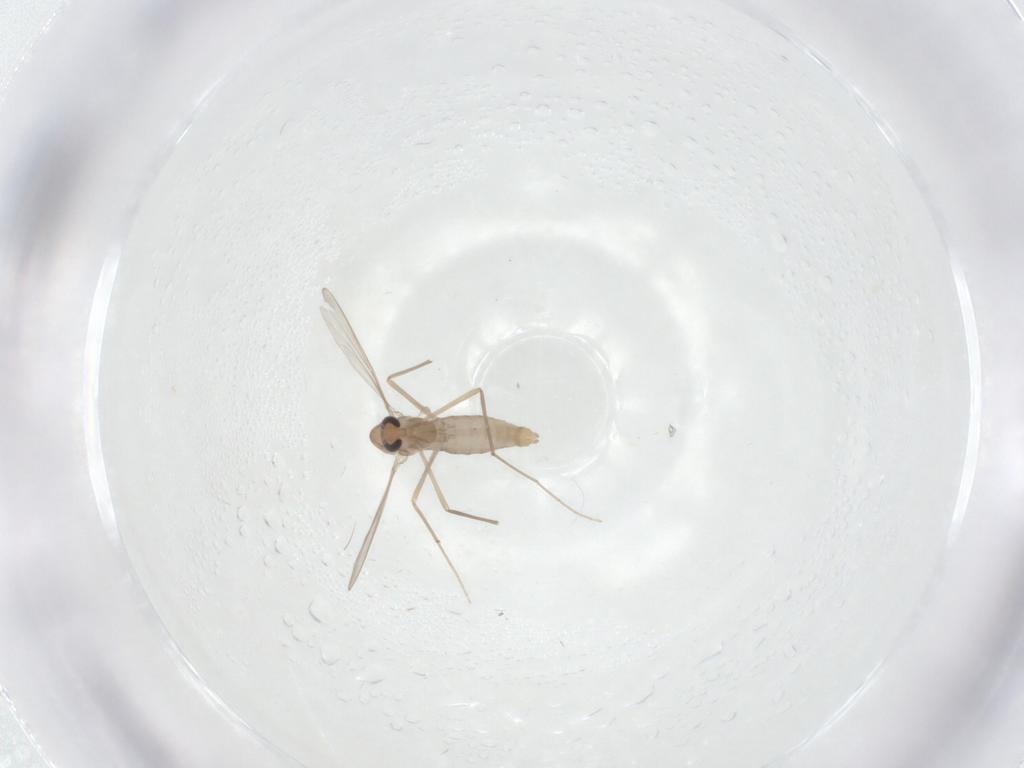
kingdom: Animalia
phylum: Arthropoda
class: Insecta
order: Diptera
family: Chironomidae
